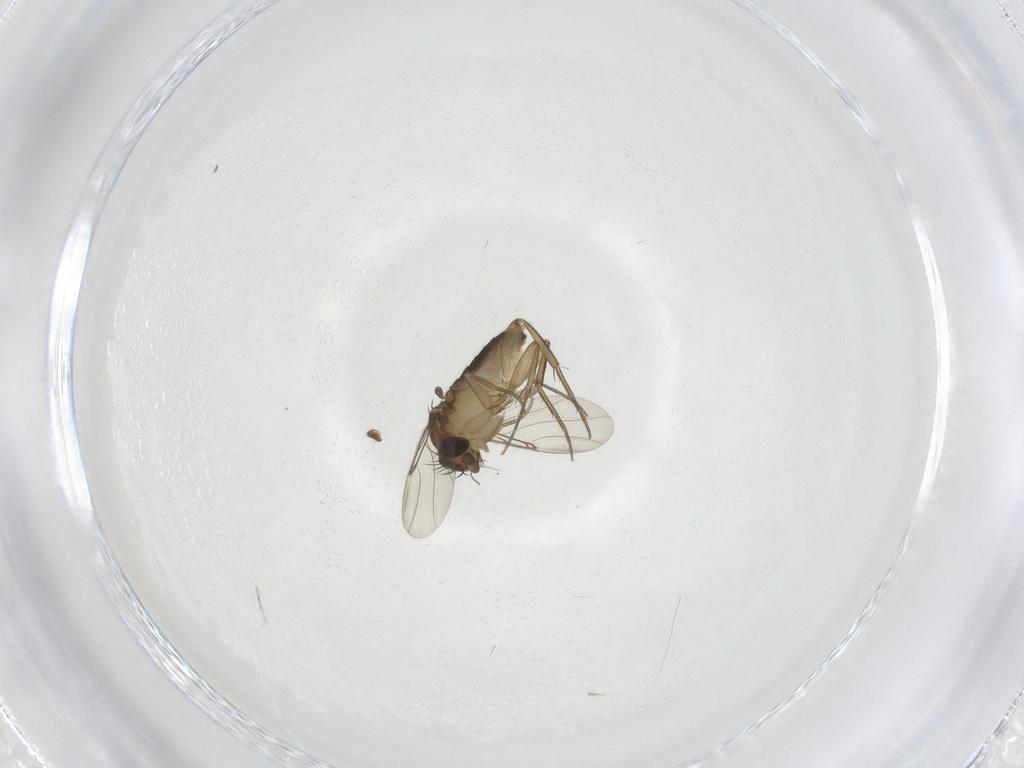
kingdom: Animalia
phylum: Arthropoda
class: Insecta
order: Diptera
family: Phoridae
